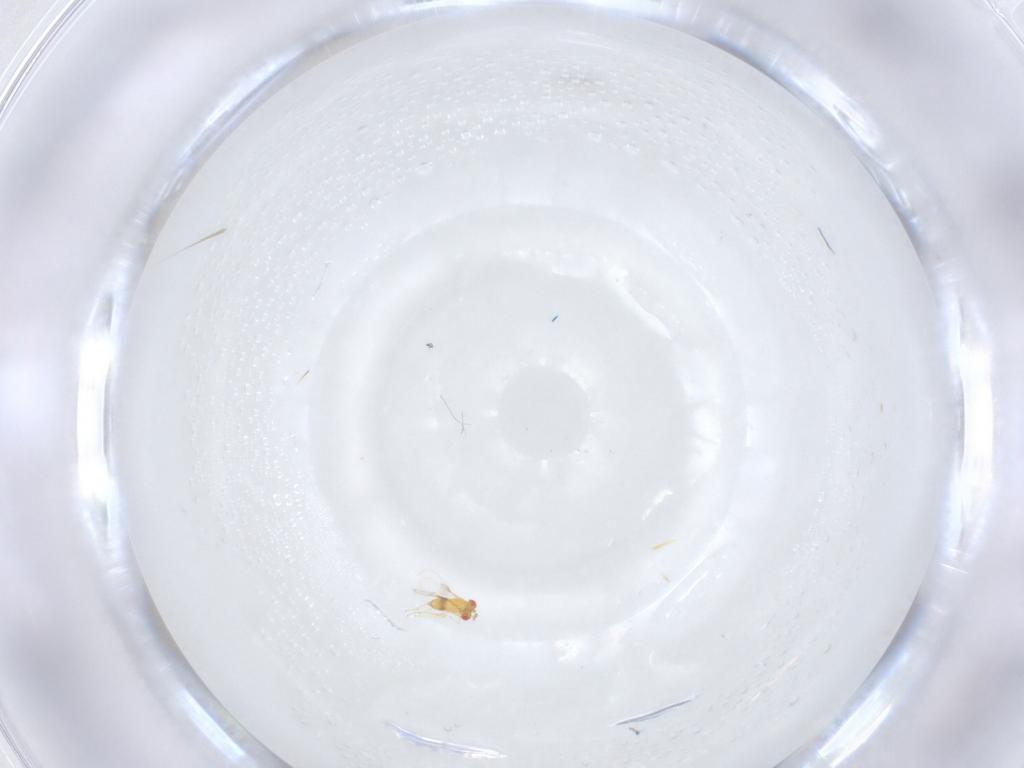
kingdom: Animalia
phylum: Arthropoda
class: Insecta
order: Hymenoptera
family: Trichogrammatidae
